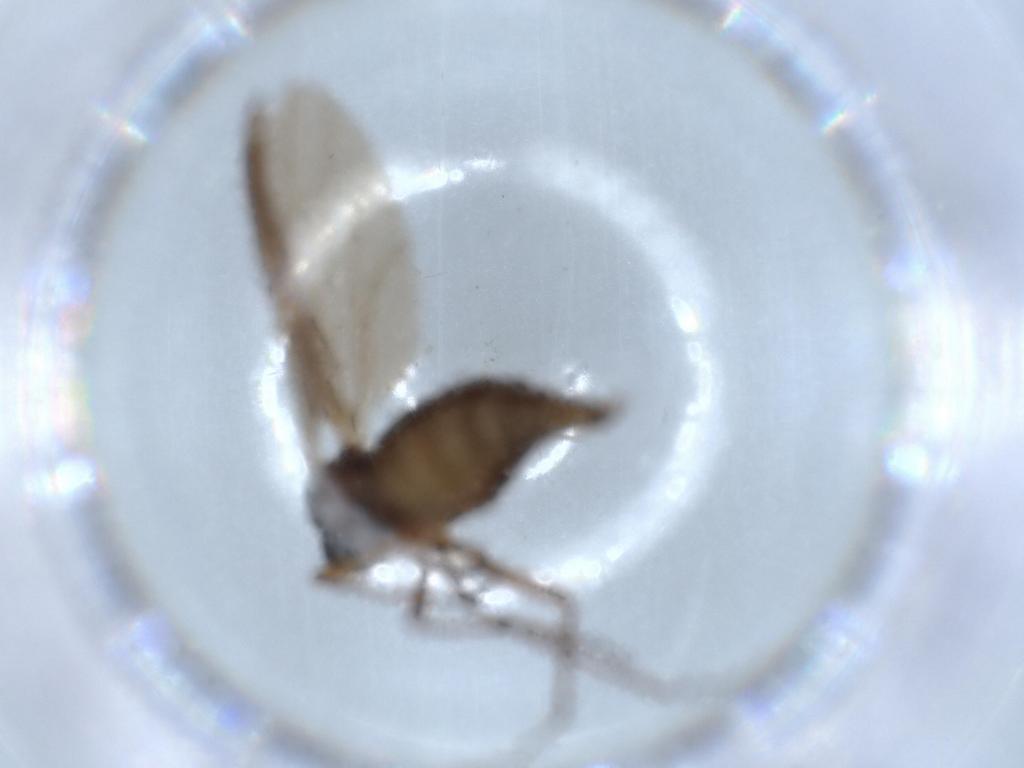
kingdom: Animalia
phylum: Arthropoda
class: Insecta
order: Diptera
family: Sciaridae
